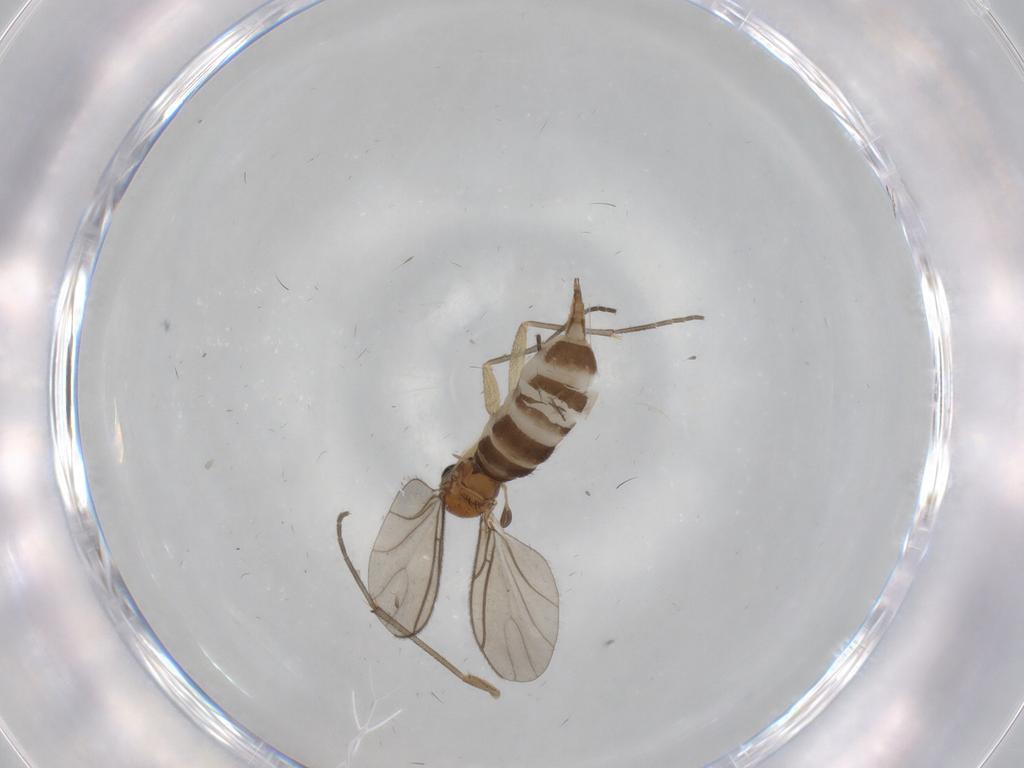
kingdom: Animalia
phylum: Arthropoda
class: Insecta
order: Diptera
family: Sciaridae
